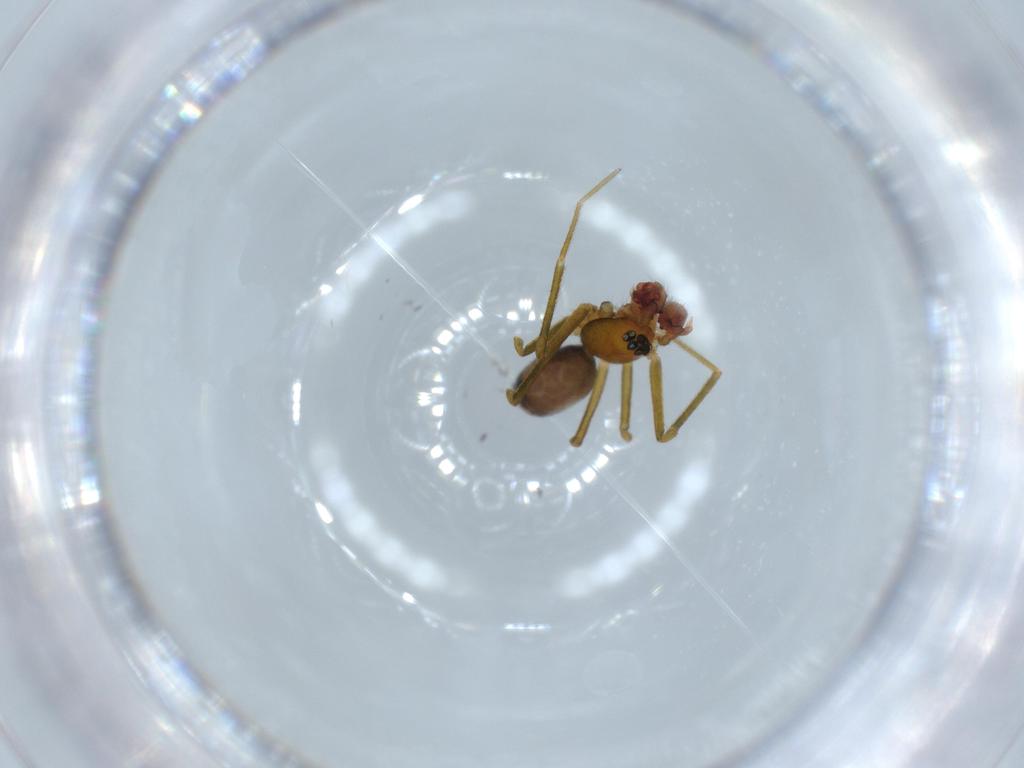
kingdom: Animalia
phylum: Arthropoda
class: Arachnida
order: Araneae
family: Linyphiidae
